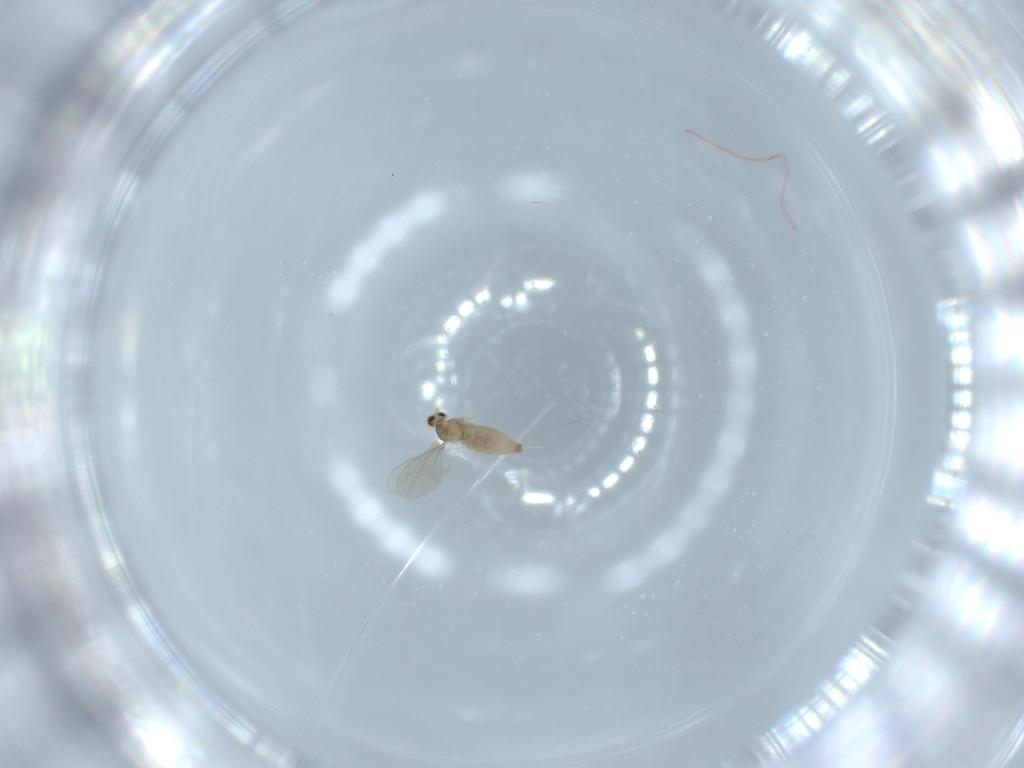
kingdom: Animalia
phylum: Arthropoda
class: Insecta
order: Diptera
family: Cecidomyiidae
